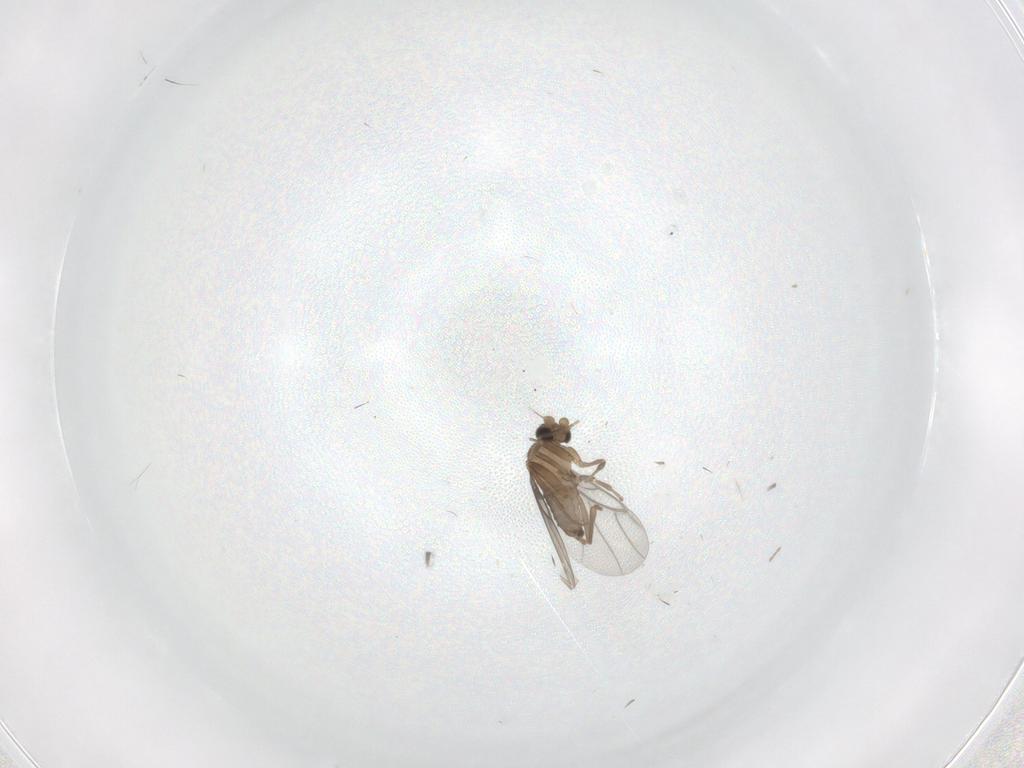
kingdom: Animalia
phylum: Arthropoda
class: Insecta
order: Diptera
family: Limoniidae
